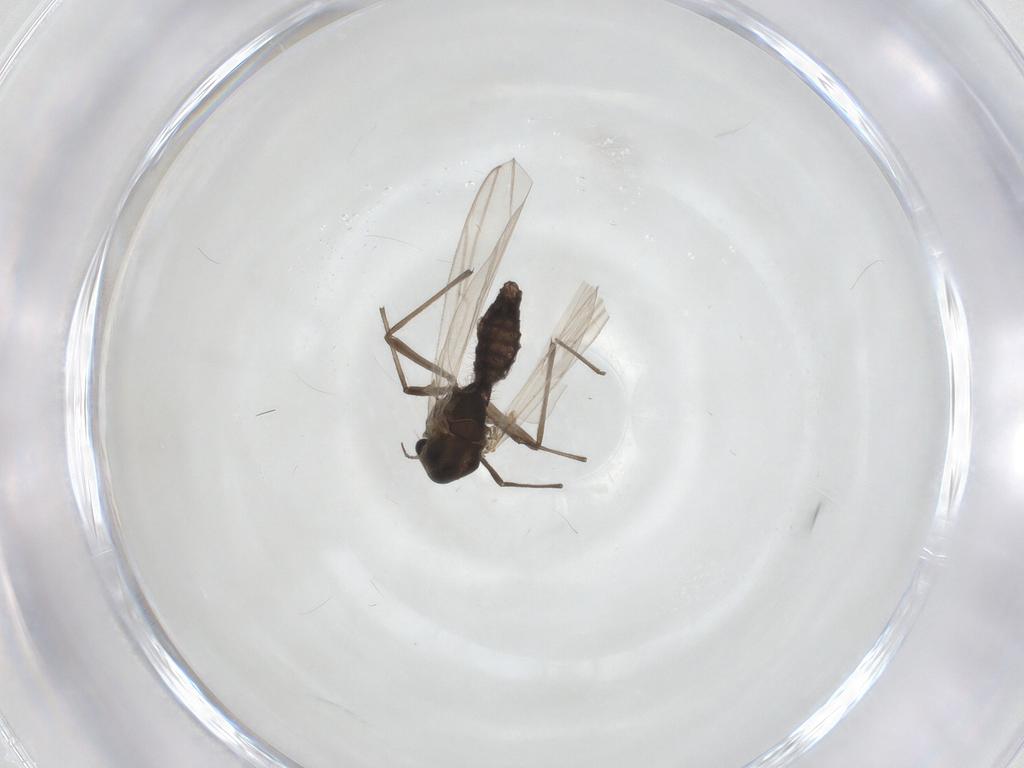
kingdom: Animalia
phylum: Arthropoda
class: Insecta
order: Diptera
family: Chironomidae
